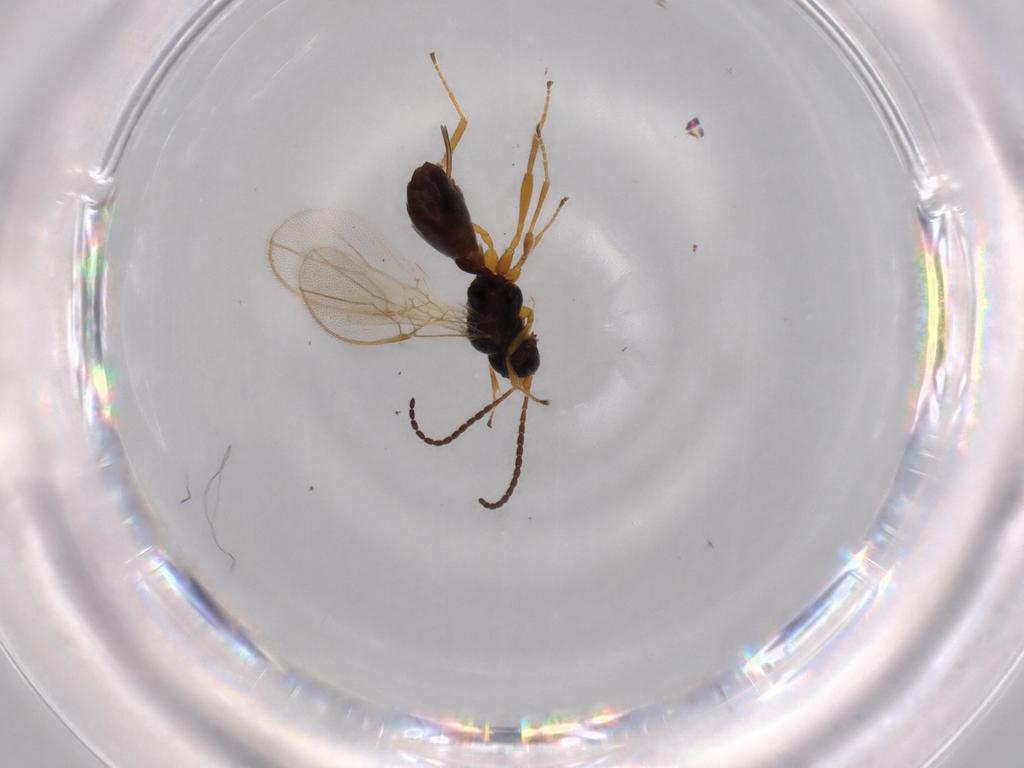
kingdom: Animalia
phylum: Arthropoda
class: Insecta
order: Hymenoptera
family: Braconidae
